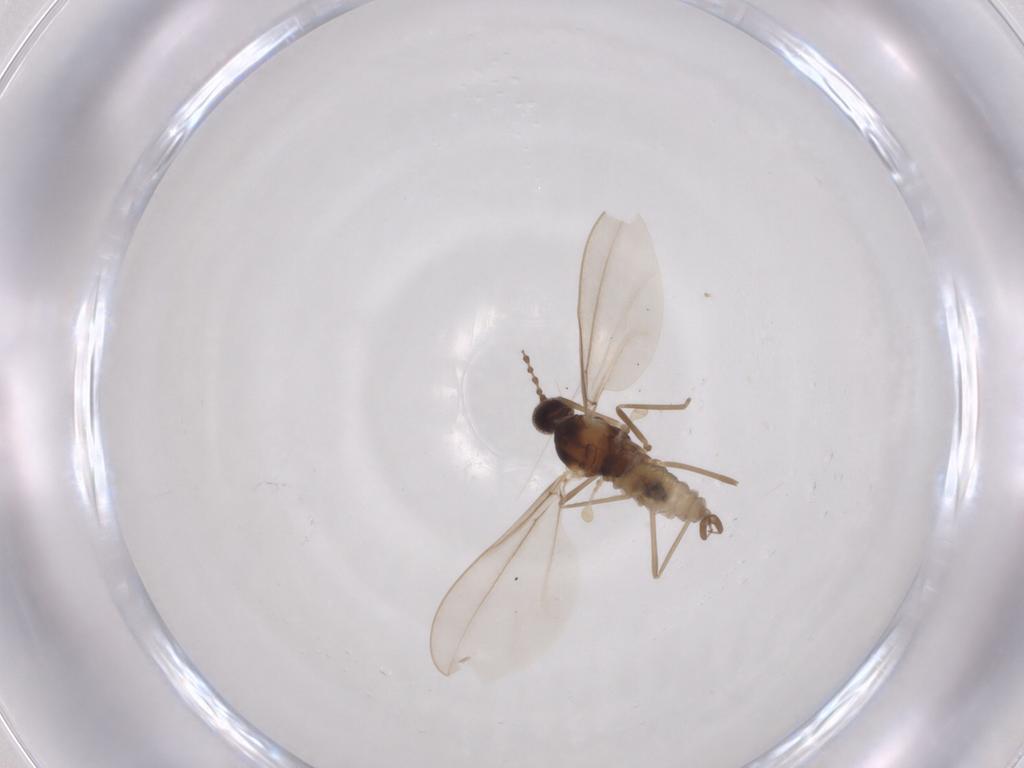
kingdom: Animalia
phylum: Arthropoda
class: Insecta
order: Diptera
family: Cecidomyiidae
